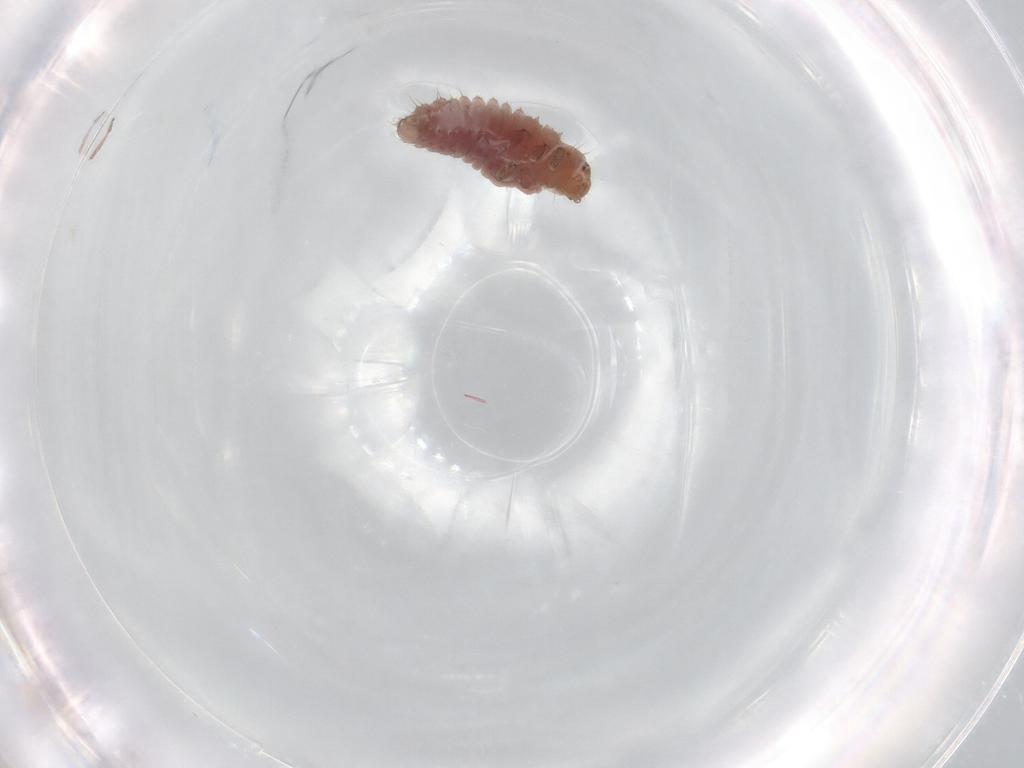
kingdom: Animalia
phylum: Arthropoda
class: Insecta
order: Coleoptera
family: Coccinellidae
